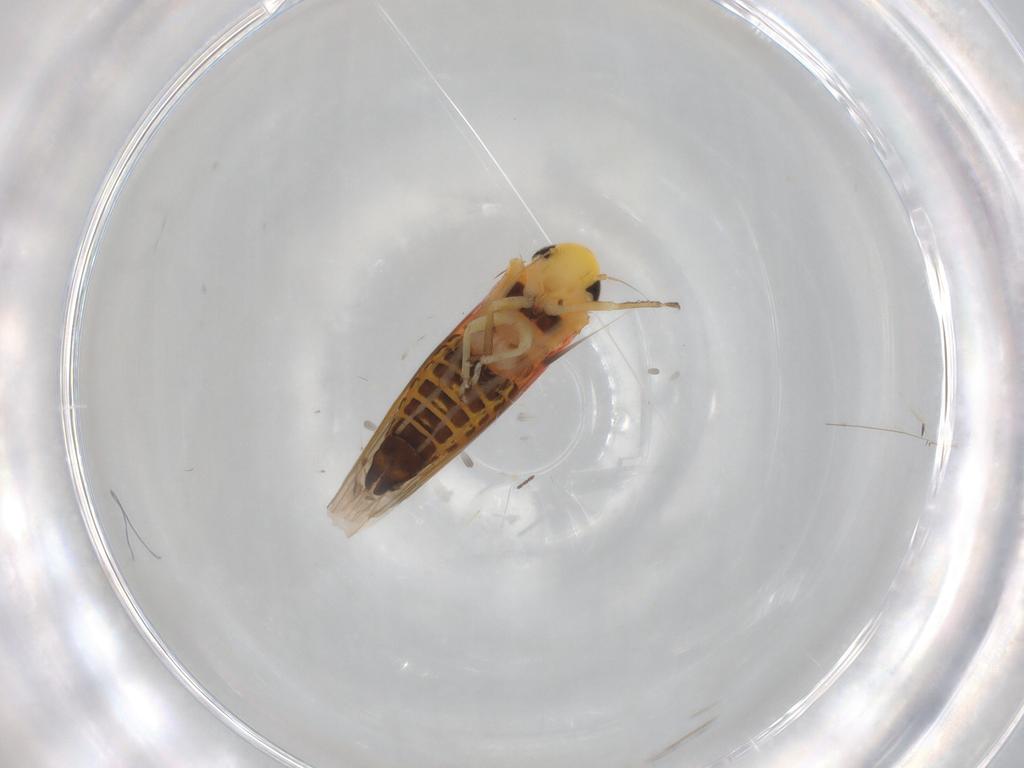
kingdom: Animalia
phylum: Arthropoda
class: Insecta
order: Hemiptera
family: Cicadellidae
